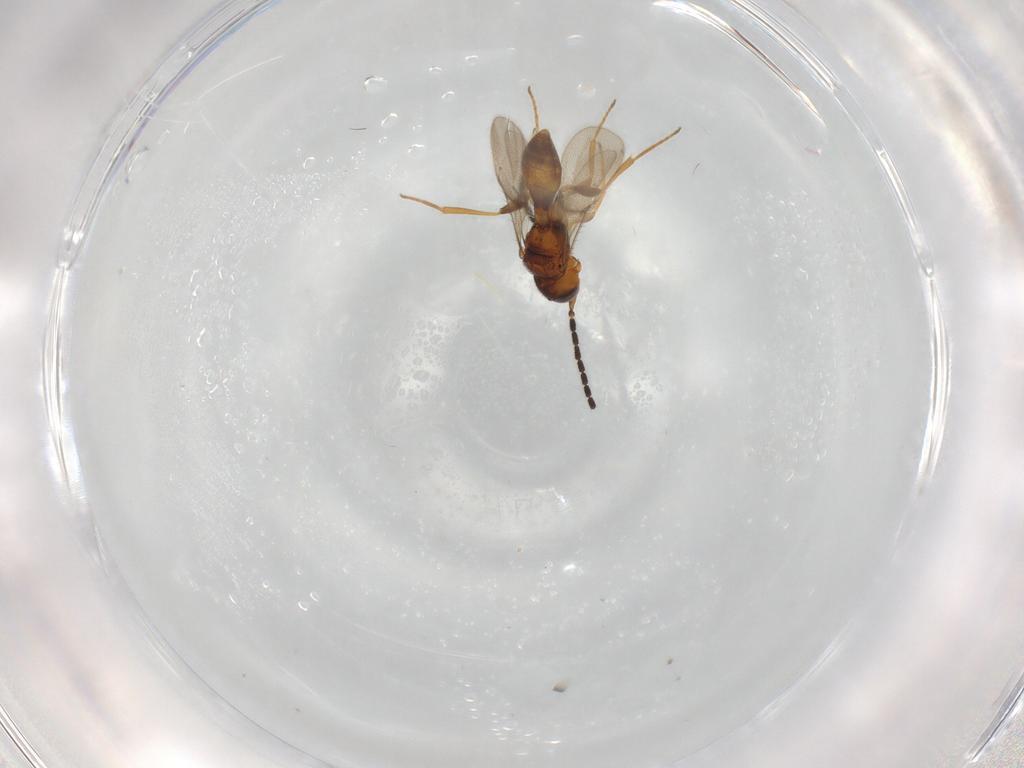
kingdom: Animalia
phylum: Arthropoda
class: Insecta
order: Hymenoptera
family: Scelionidae
